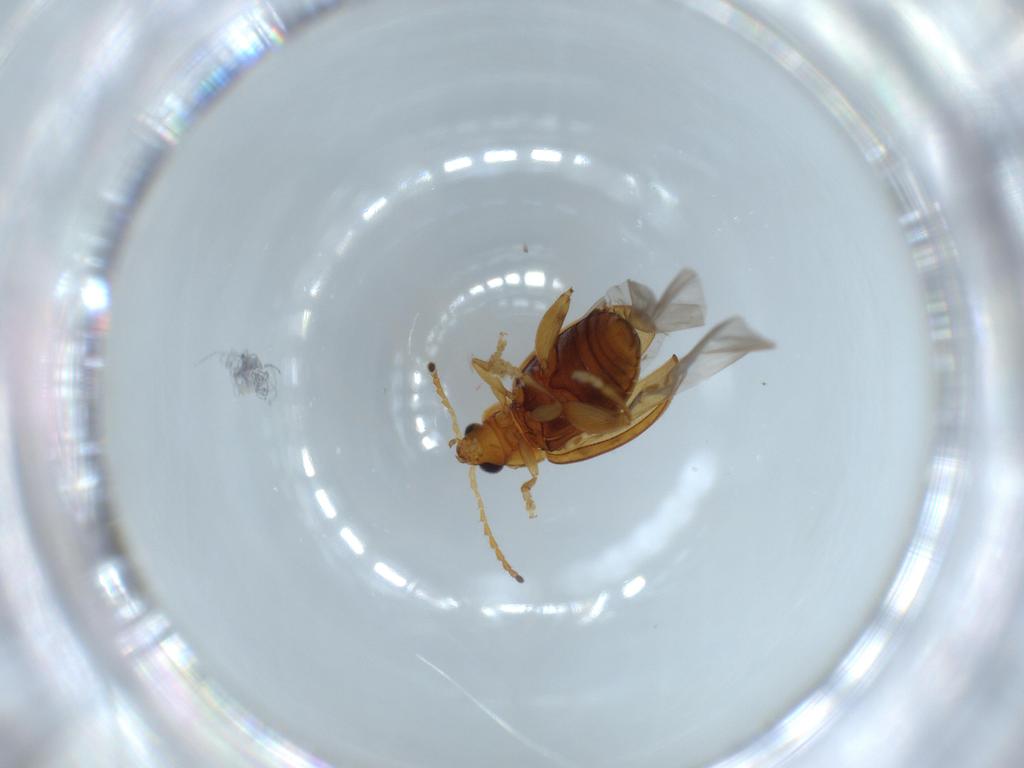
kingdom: Animalia
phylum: Arthropoda
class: Insecta
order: Coleoptera
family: Chrysomelidae
